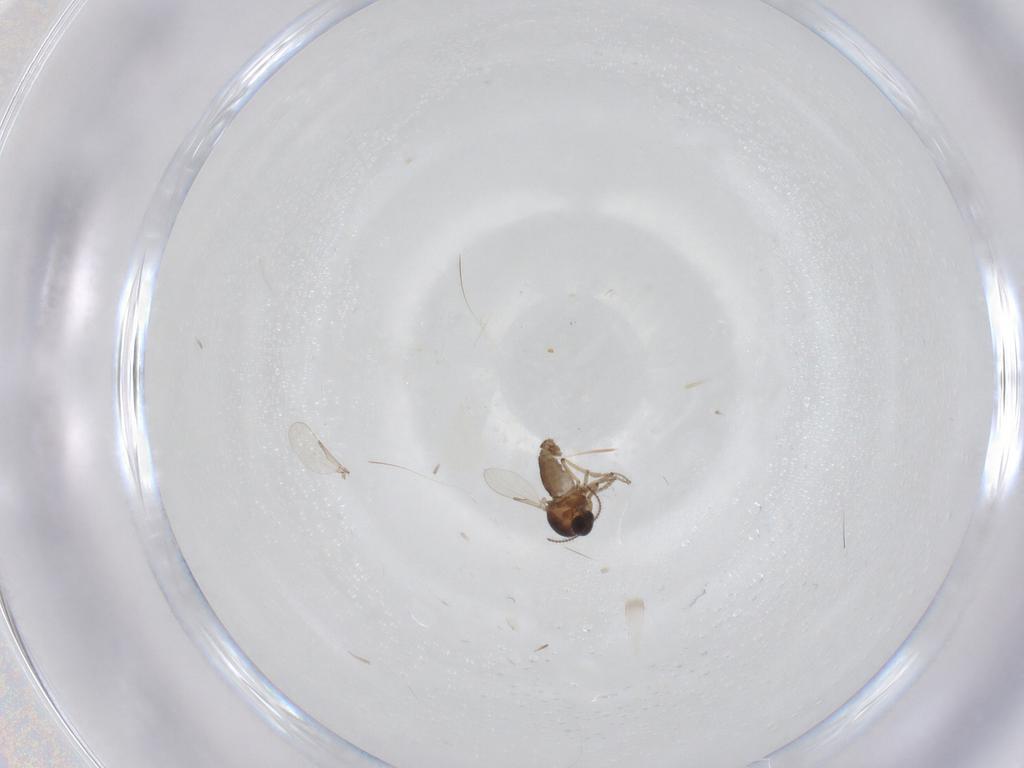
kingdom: Animalia
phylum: Arthropoda
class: Insecta
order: Diptera
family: Ceratopogonidae
